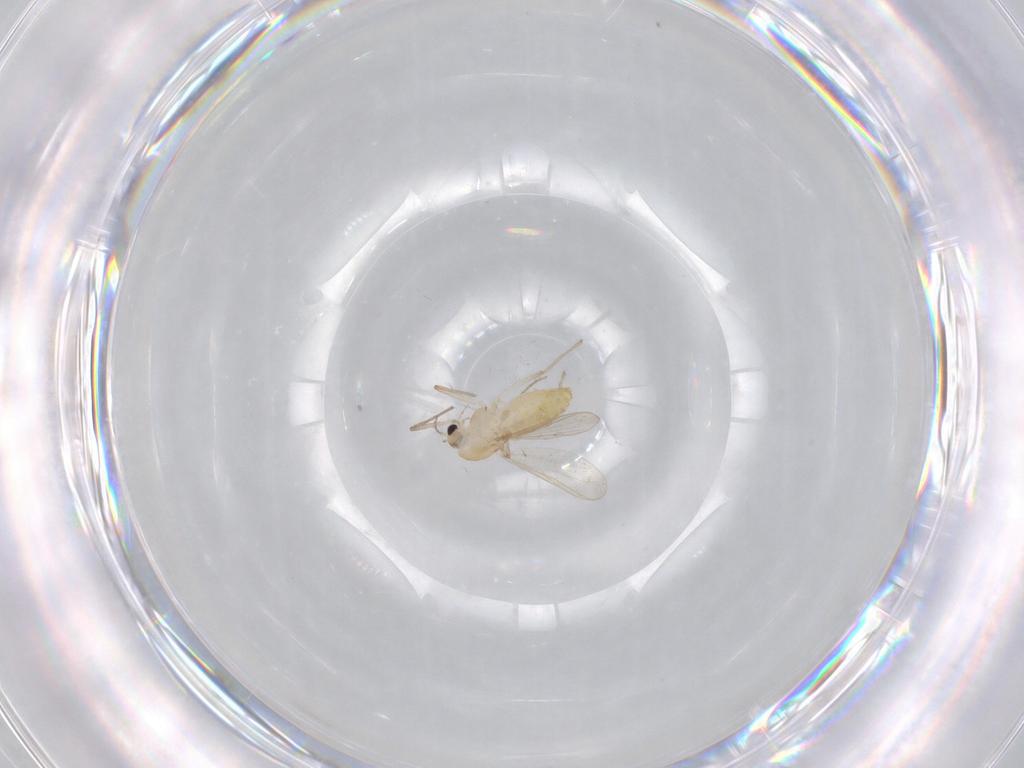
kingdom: Animalia
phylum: Arthropoda
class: Insecta
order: Diptera
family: Chironomidae
